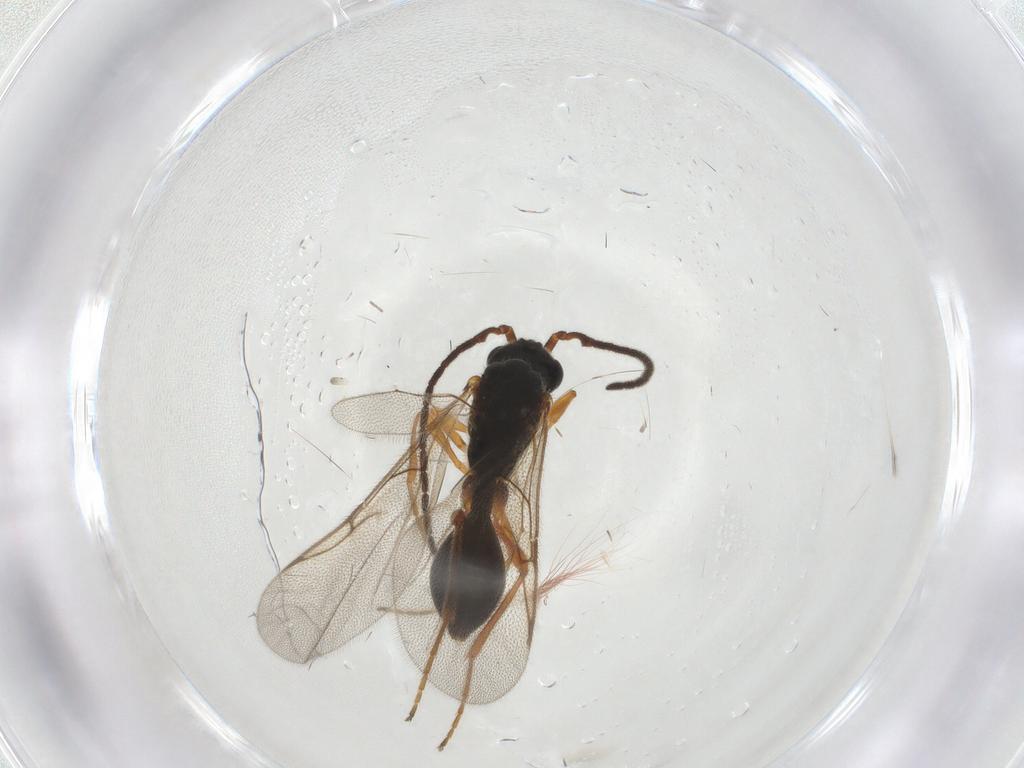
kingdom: Animalia
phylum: Arthropoda
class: Insecta
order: Hymenoptera
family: Diapriidae
